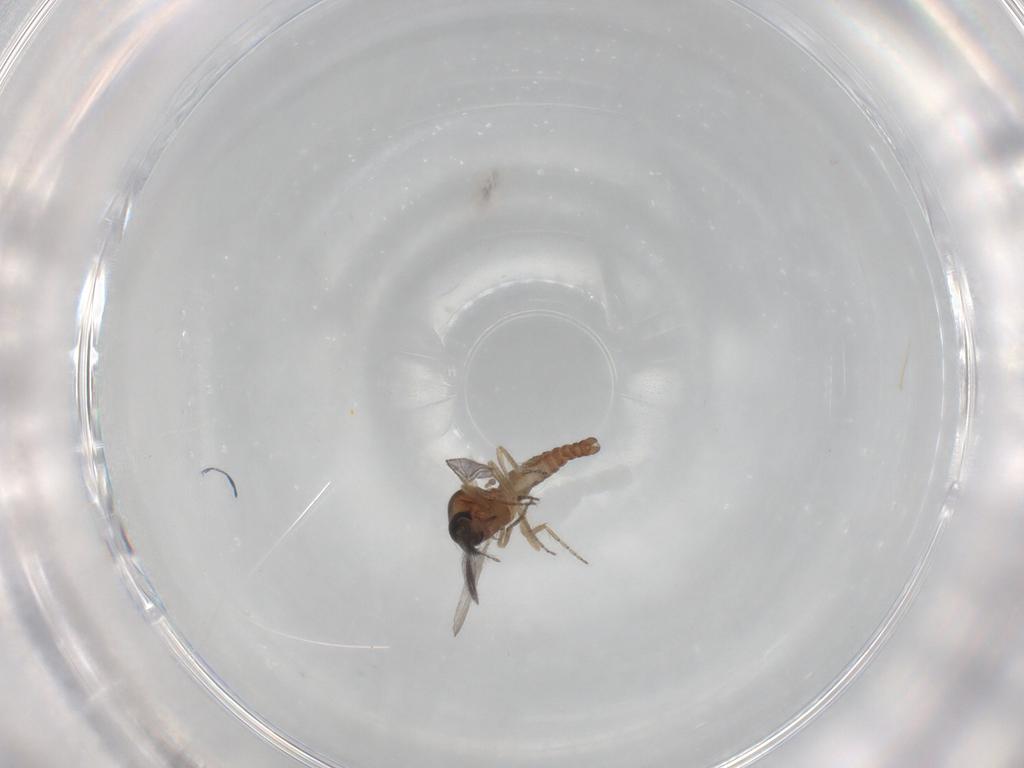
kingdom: Animalia
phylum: Arthropoda
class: Insecta
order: Diptera
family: Ceratopogonidae
